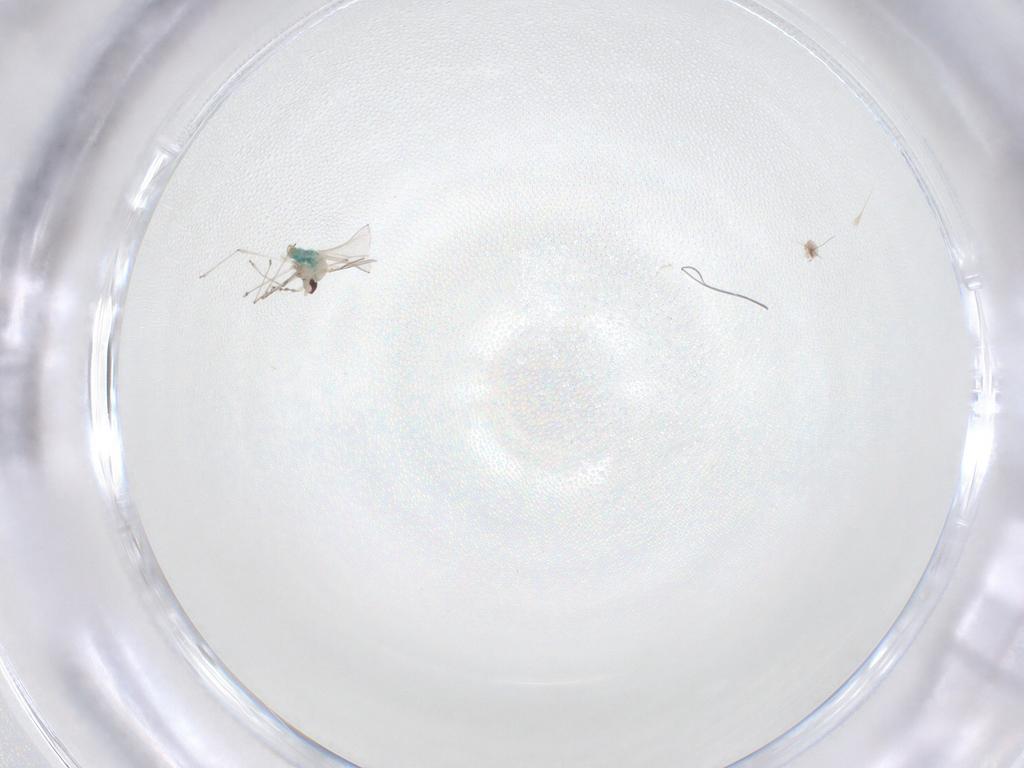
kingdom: Animalia
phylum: Arthropoda
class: Insecta
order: Diptera
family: Cecidomyiidae
